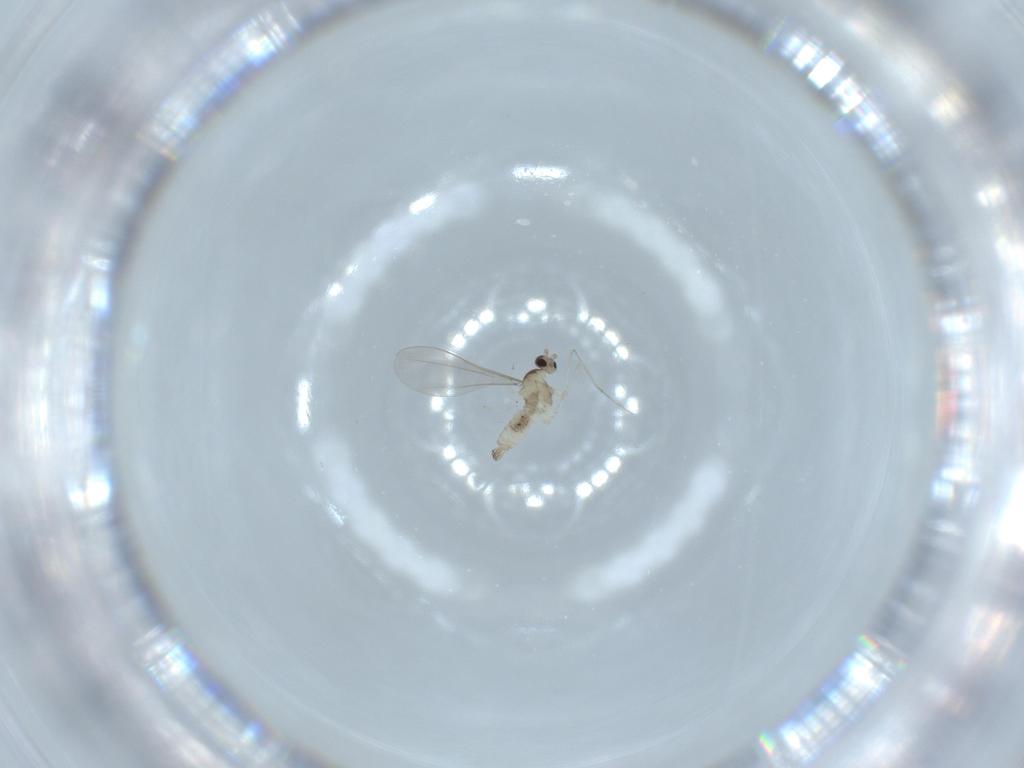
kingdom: Animalia
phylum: Arthropoda
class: Insecta
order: Diptera
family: Cecidomyiidae
